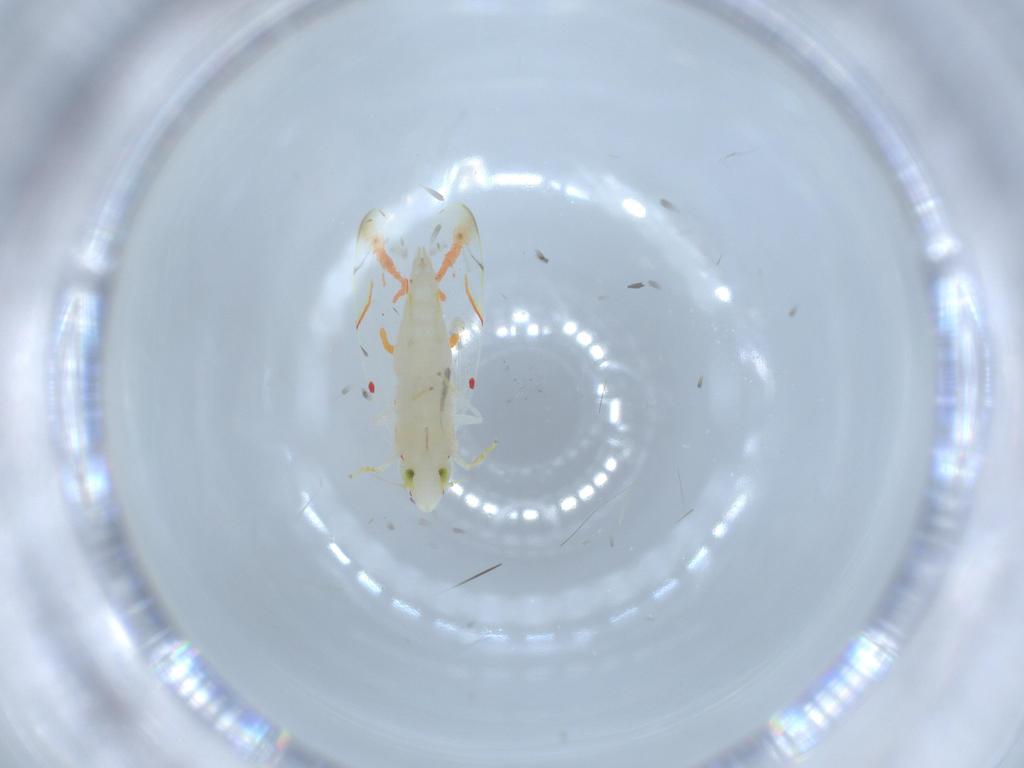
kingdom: Animalia
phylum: Arthropoda
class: Insecta
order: Hemiptera
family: Cicadellidae
